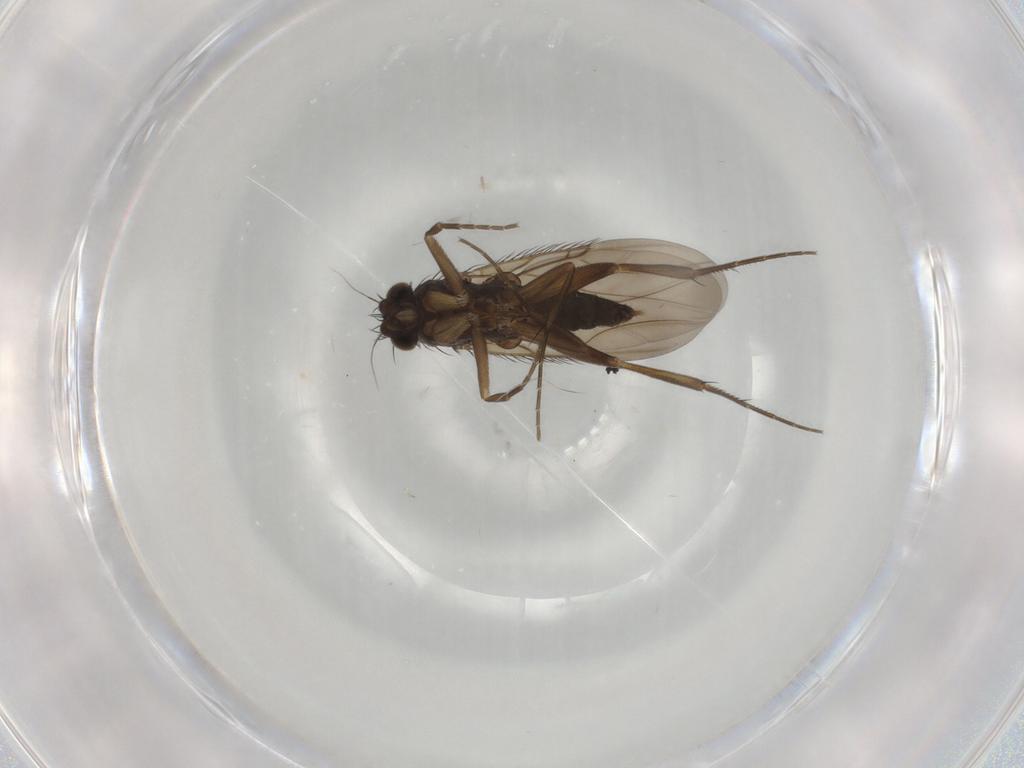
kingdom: Animalia
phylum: Arthropoda
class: Insecta
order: Diptera
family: Phoridae
